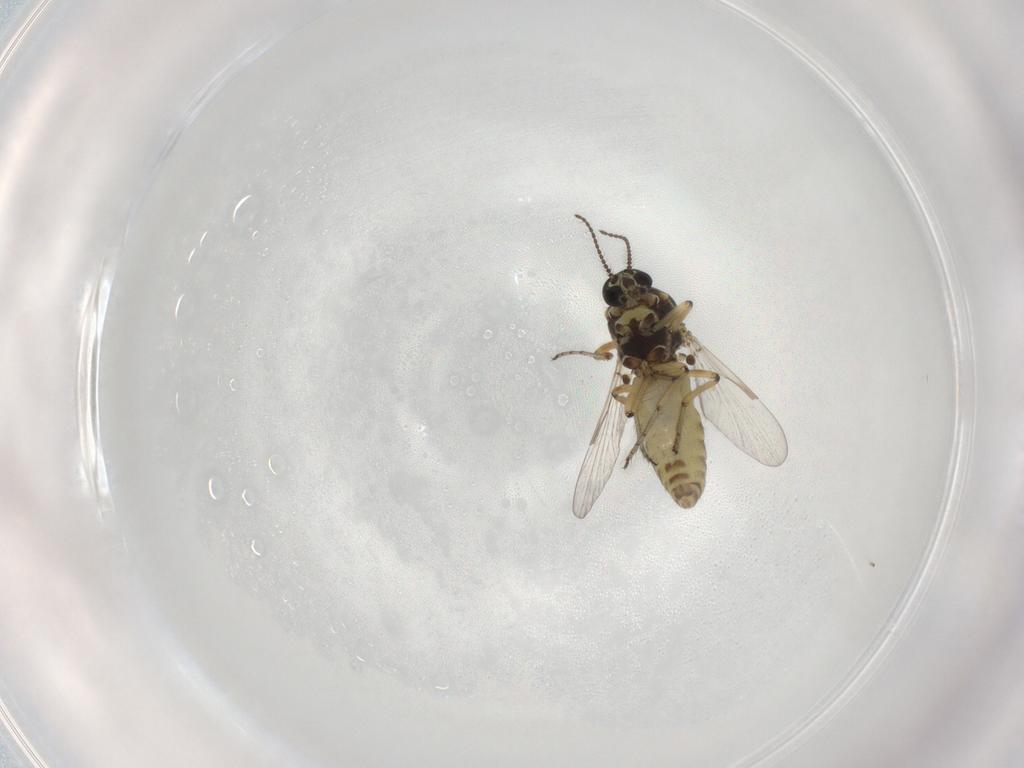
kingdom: Animalia
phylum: Arthropoda
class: Insecta
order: Diptera
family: Ceratopogonidae
